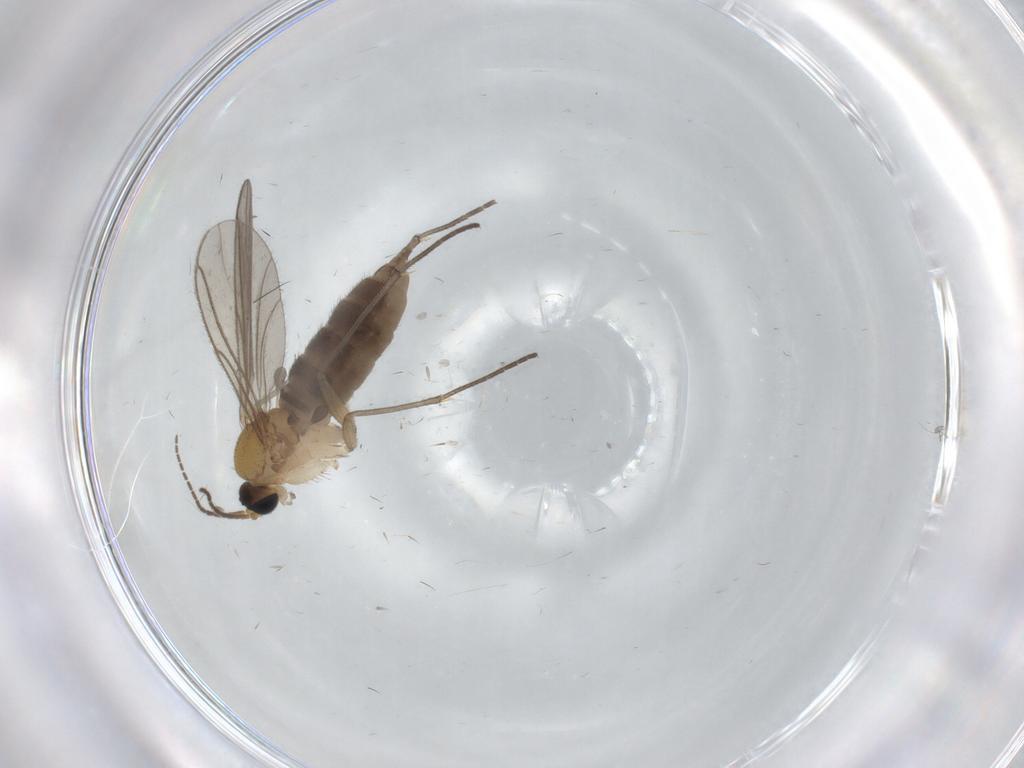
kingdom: Animalia
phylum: Arthropoda
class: Insecta
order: Diptera
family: Sciaridae
